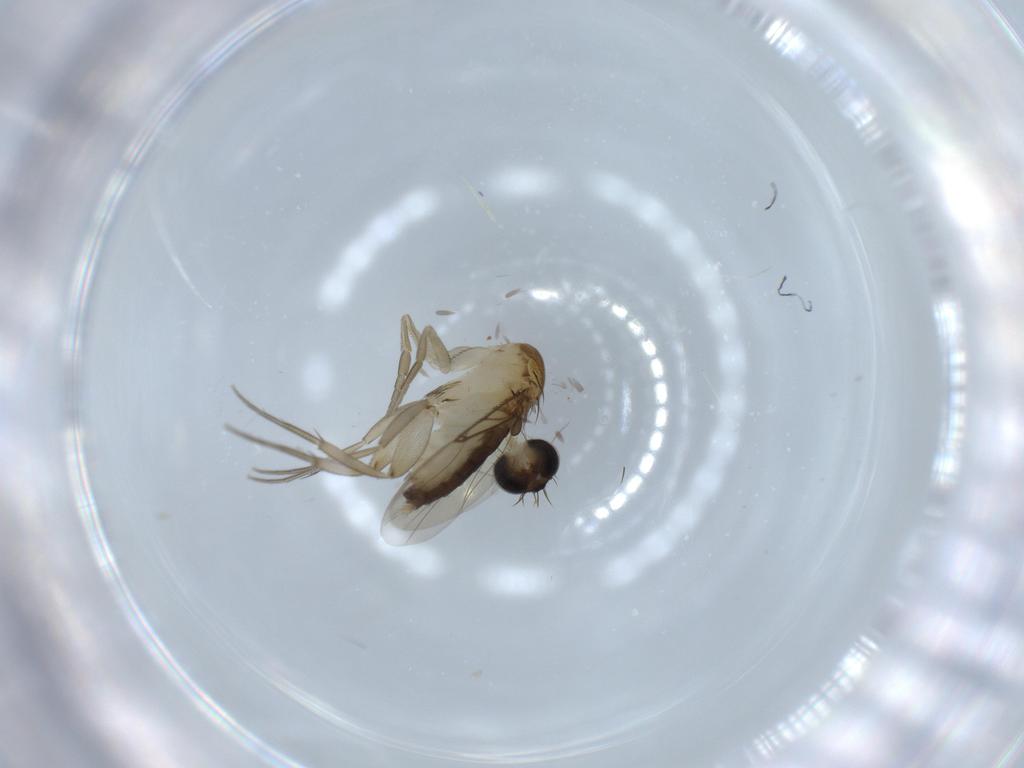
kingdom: Animalia
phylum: Arthropoda
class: Insecta
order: Diptera
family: Phoridae
